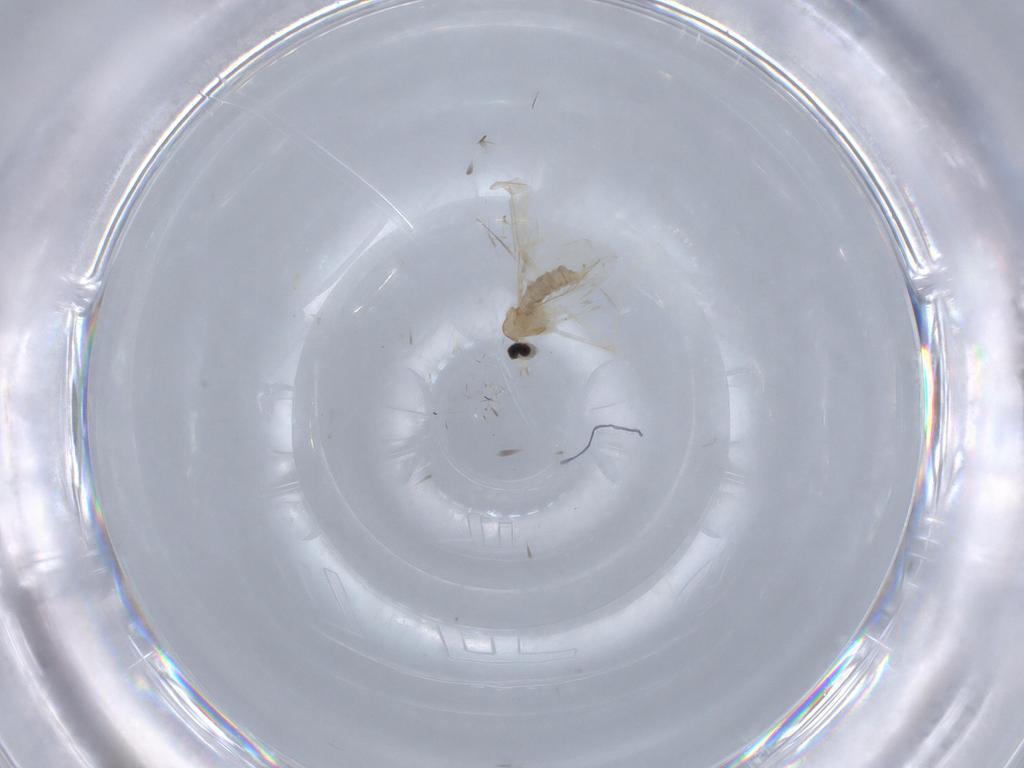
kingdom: Animalia
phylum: Arthropoda
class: Insecta
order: Diptera
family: Cecidomyiidae
